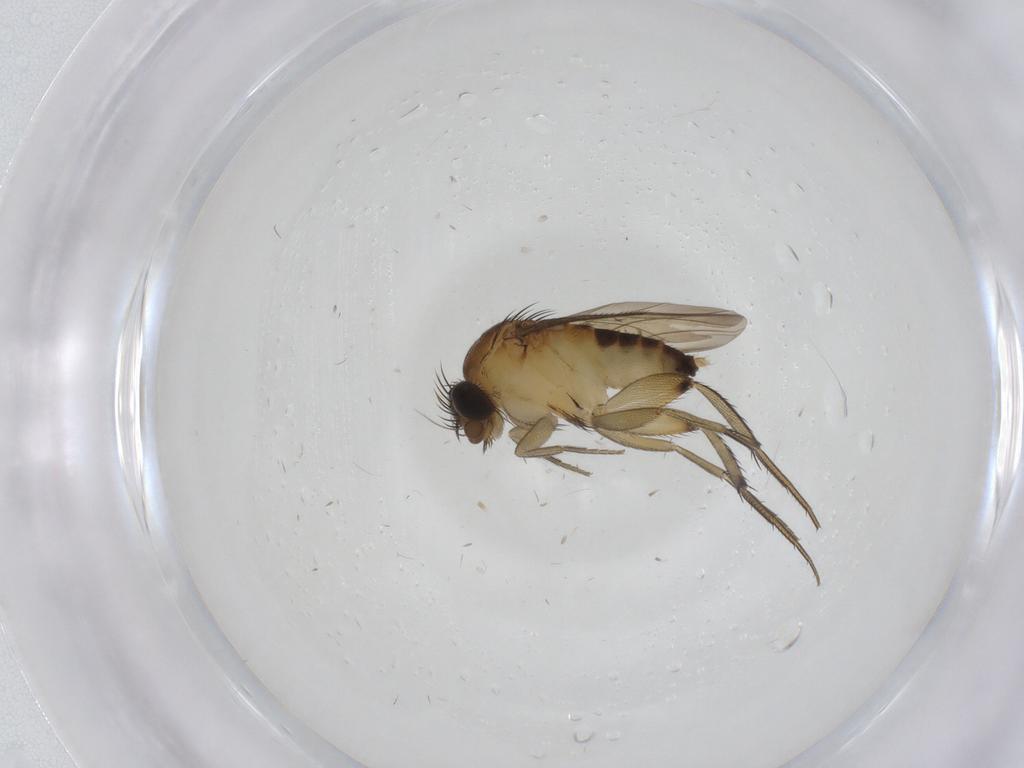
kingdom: Animalia
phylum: Arthropoda
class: Insecta
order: Diptera
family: Phoridae
